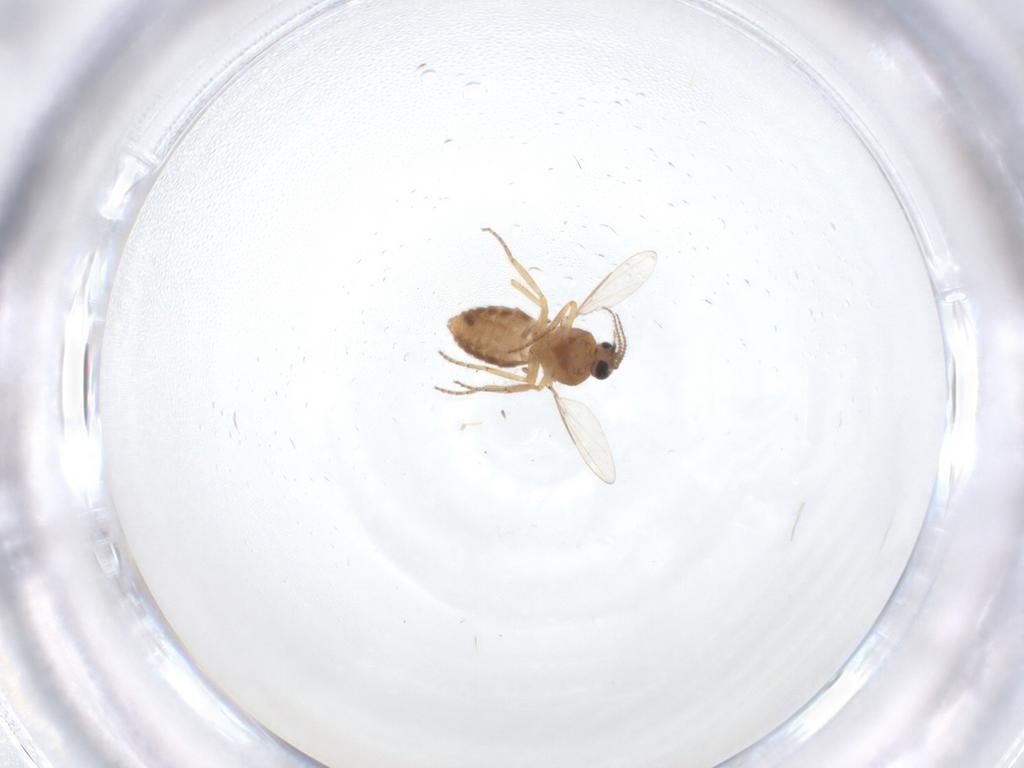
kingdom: Animalia
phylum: Arthropoda
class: Insecta
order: Diptera
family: Ceratopogonidae
